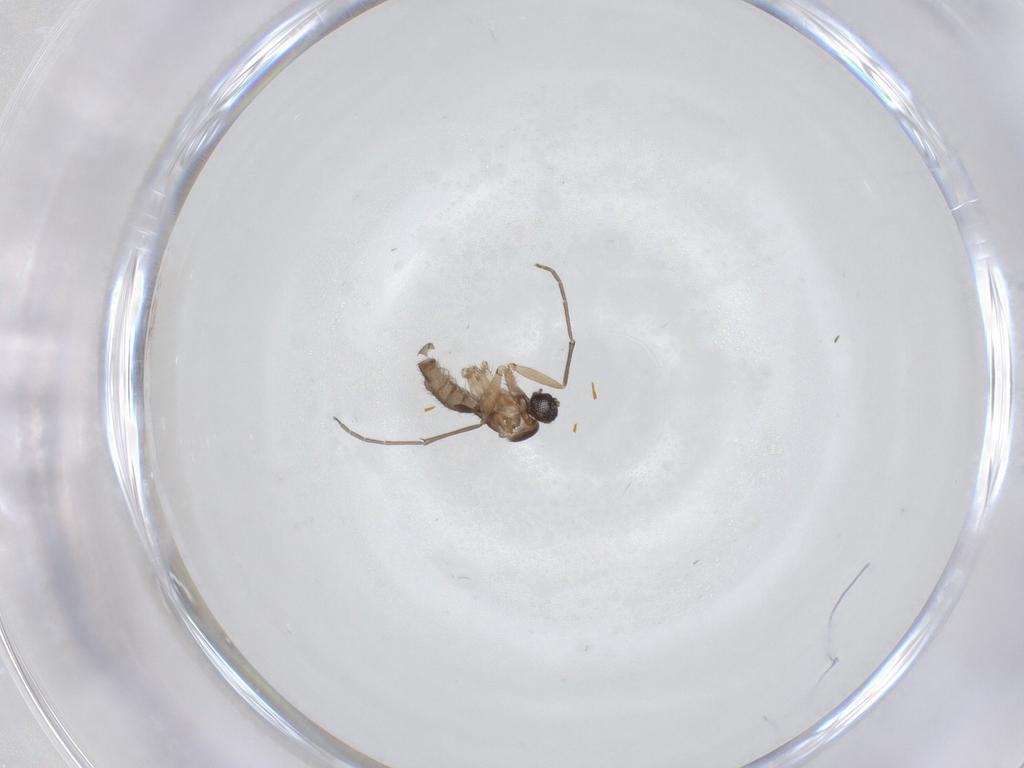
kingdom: Animalia
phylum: Arthropoda
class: Insecta
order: Diptera
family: Sciaridae
